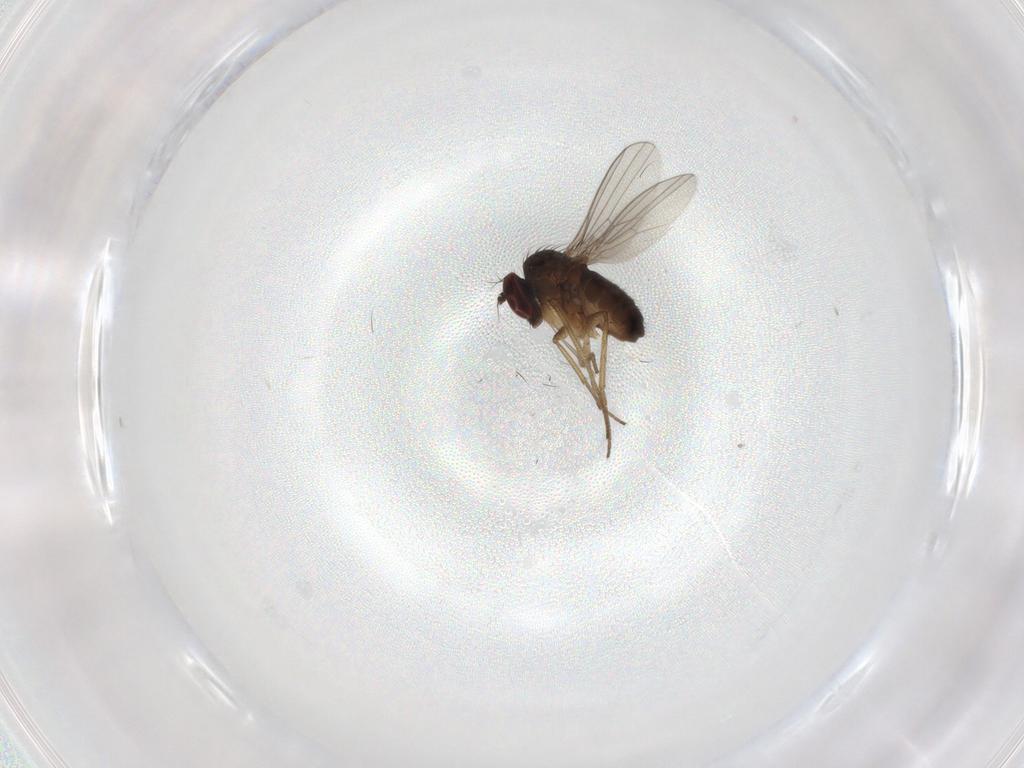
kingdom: Animalia
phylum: Arthropoda
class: Insecta
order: Diptera
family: Dolichopodidae
